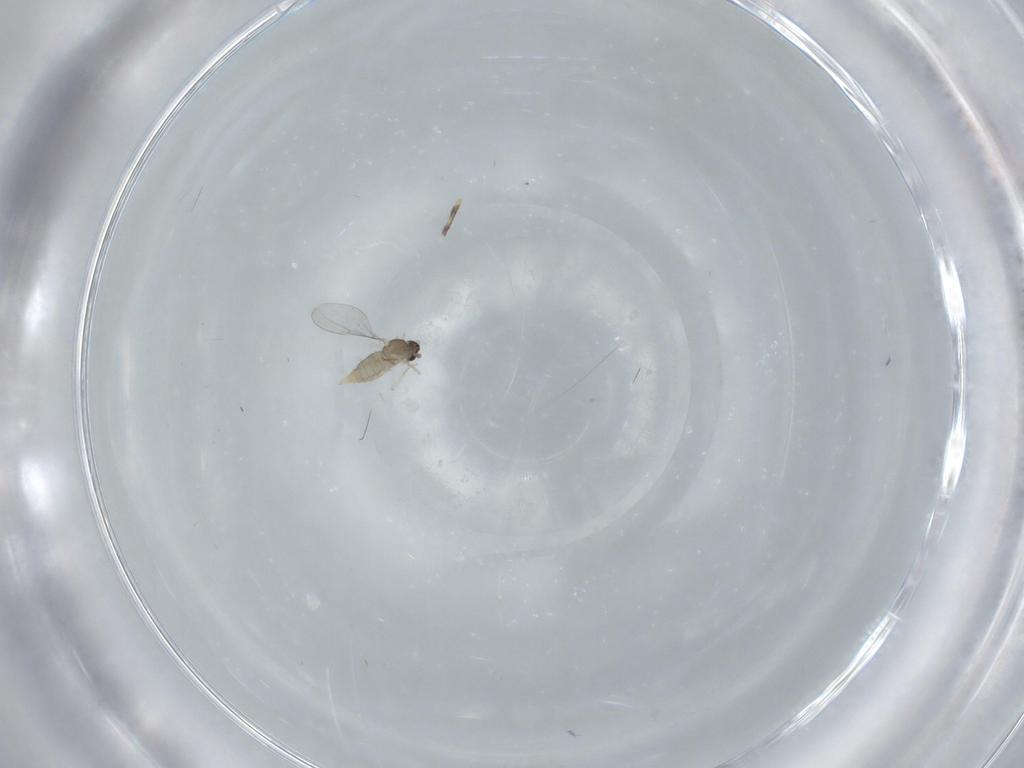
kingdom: Animalia
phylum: Arthropoda
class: Insecta
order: Diptera
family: Cecidomyiidae
